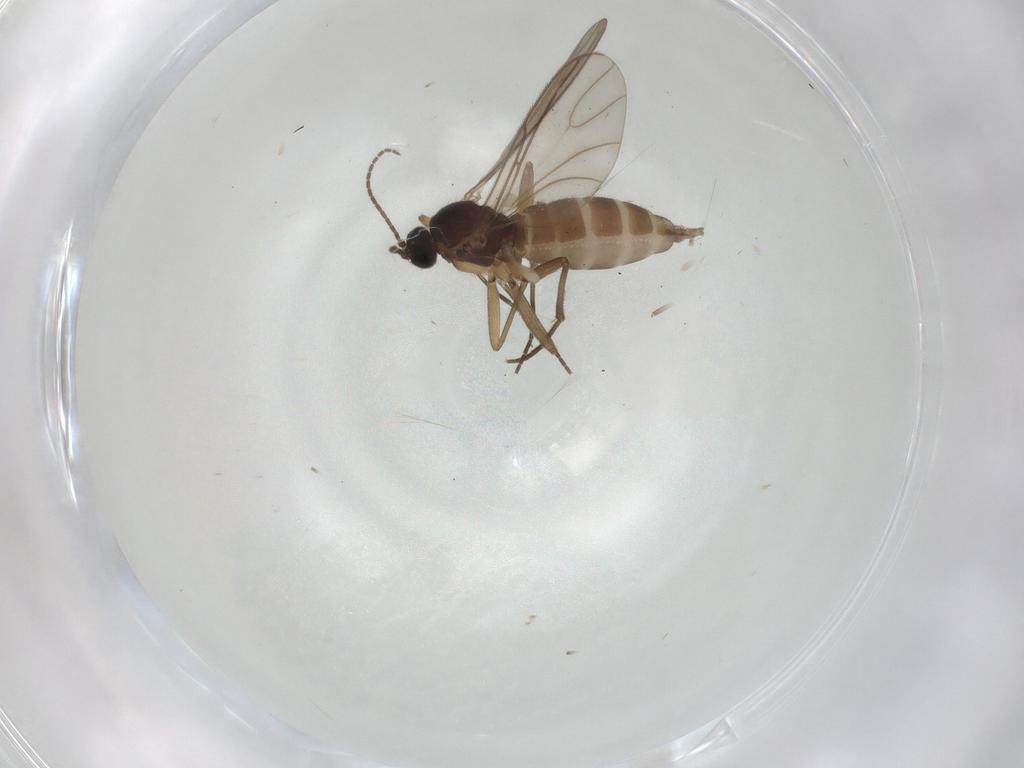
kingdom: Animalia
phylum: Arthropoda
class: Insecta
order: Diptera
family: Sciaridae
